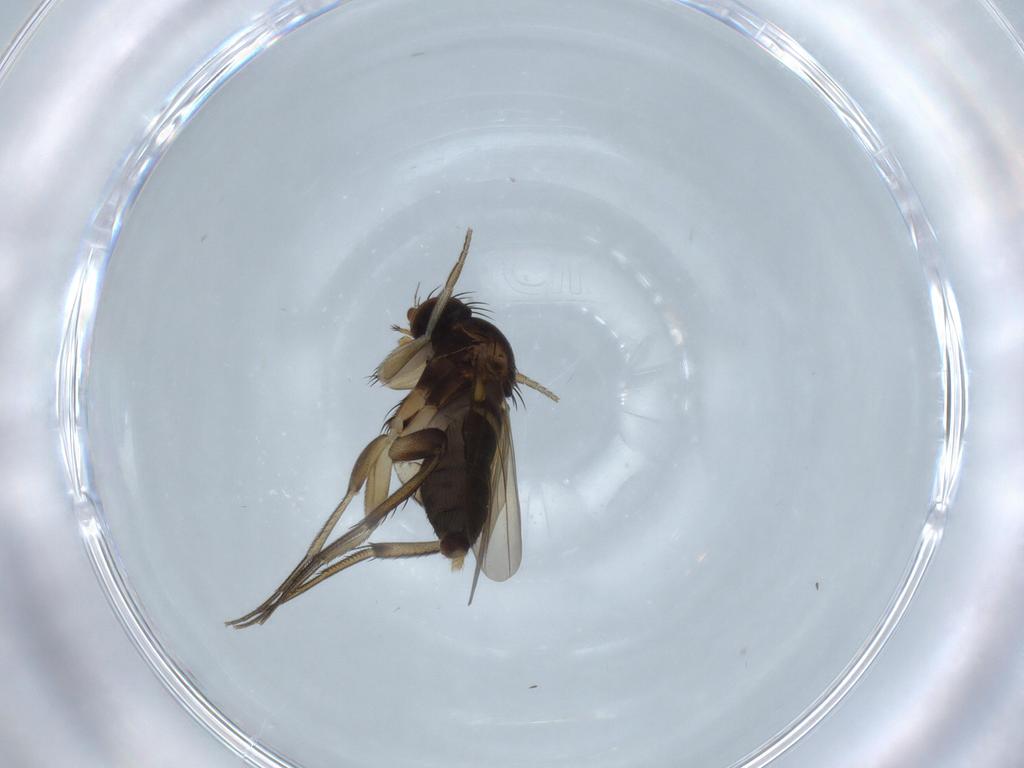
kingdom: Animalia
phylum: Arthropoda
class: Insecta
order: Diptera
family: Phoridae
